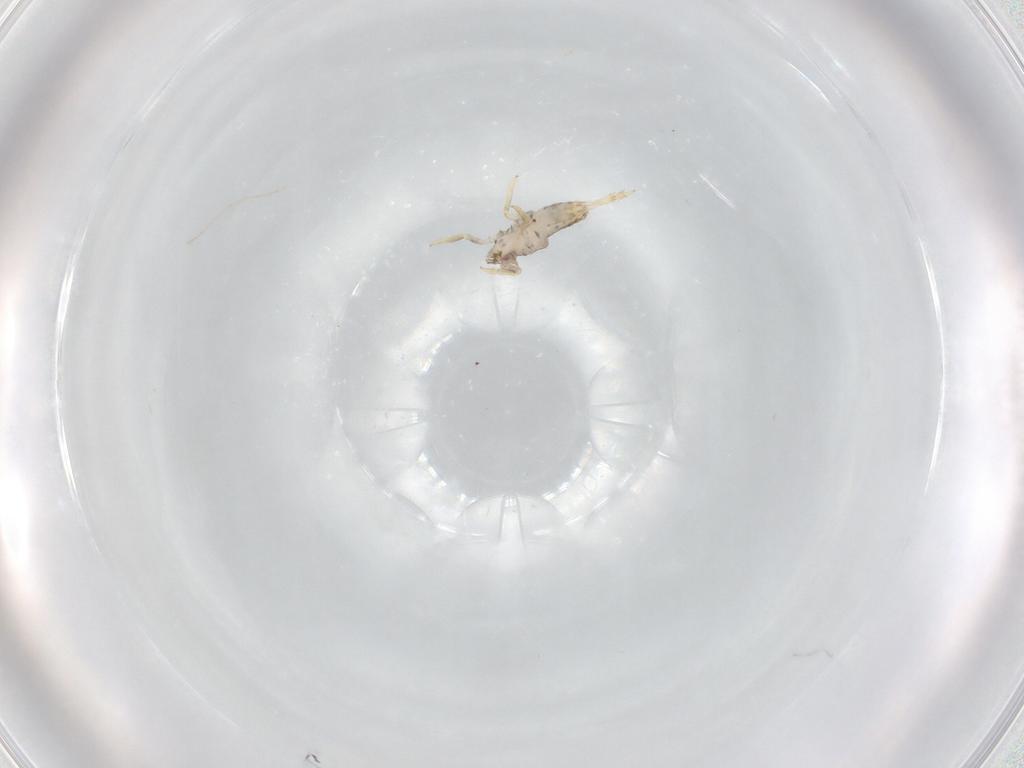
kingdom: Animalia
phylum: Arthropoda
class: Insecta
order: Hemiptera
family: Delphacidae
